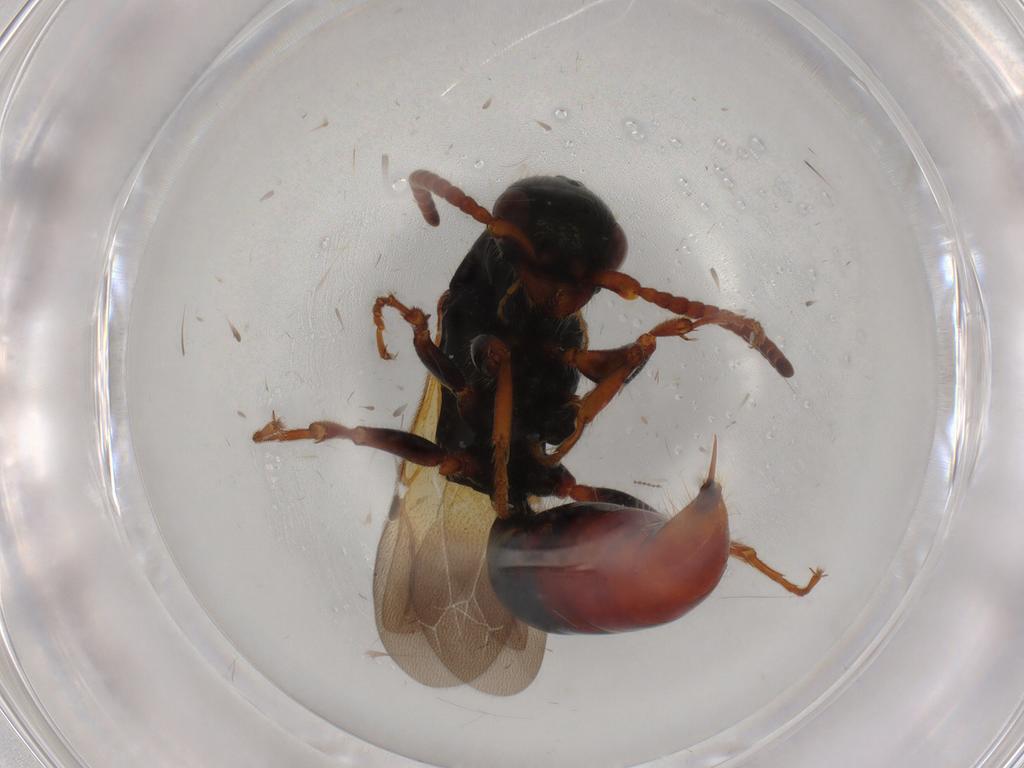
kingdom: Animalia
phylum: Arthropoda
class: Insecta
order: Hymenoptera
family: Bethylidae
